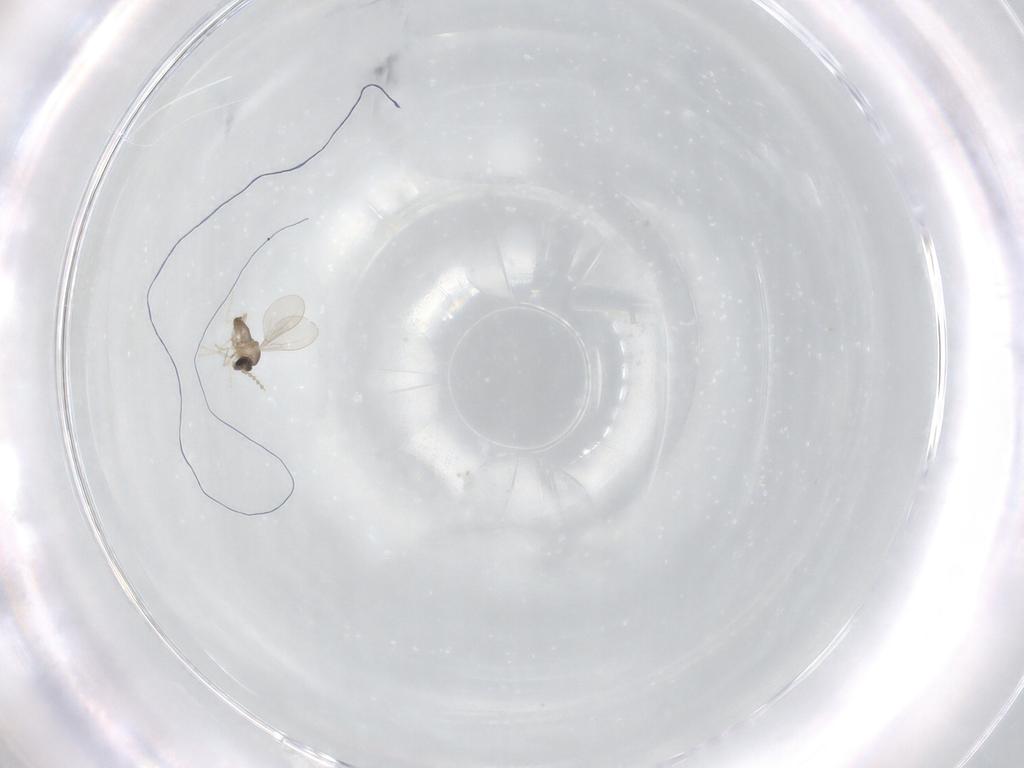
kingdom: Animalia
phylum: Arthropoda
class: Insecta
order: Diptera
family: Cecidomyiidae
